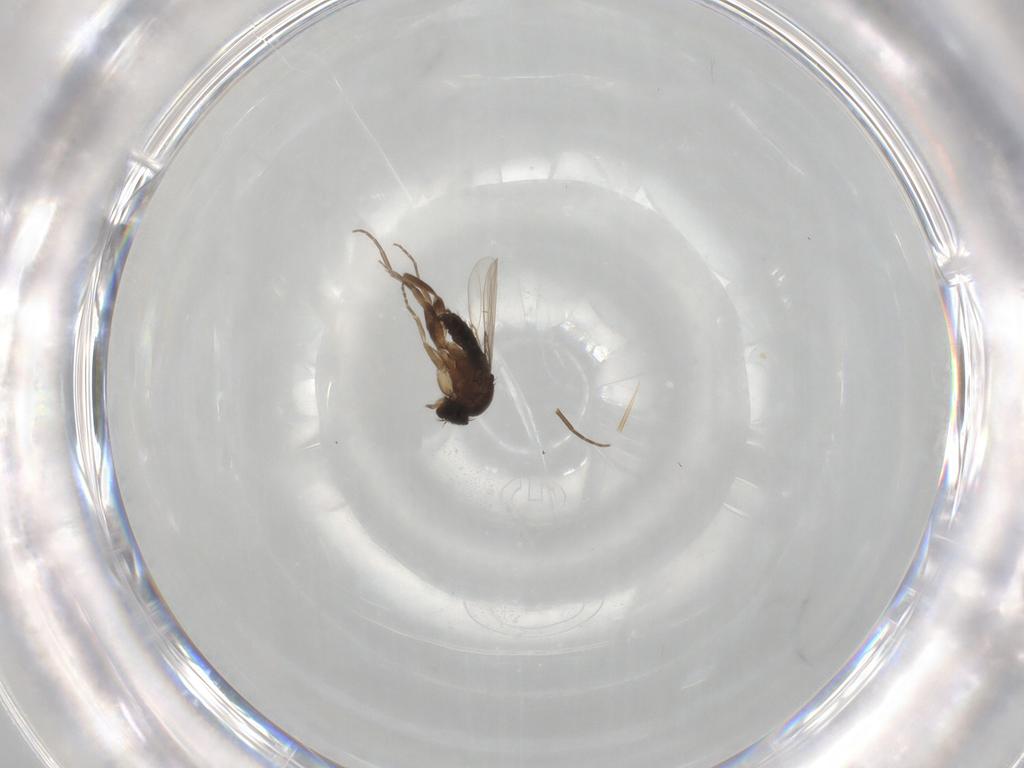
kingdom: Animalia
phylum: Arthropoda
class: Insecta
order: Diptera
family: Phoridae
